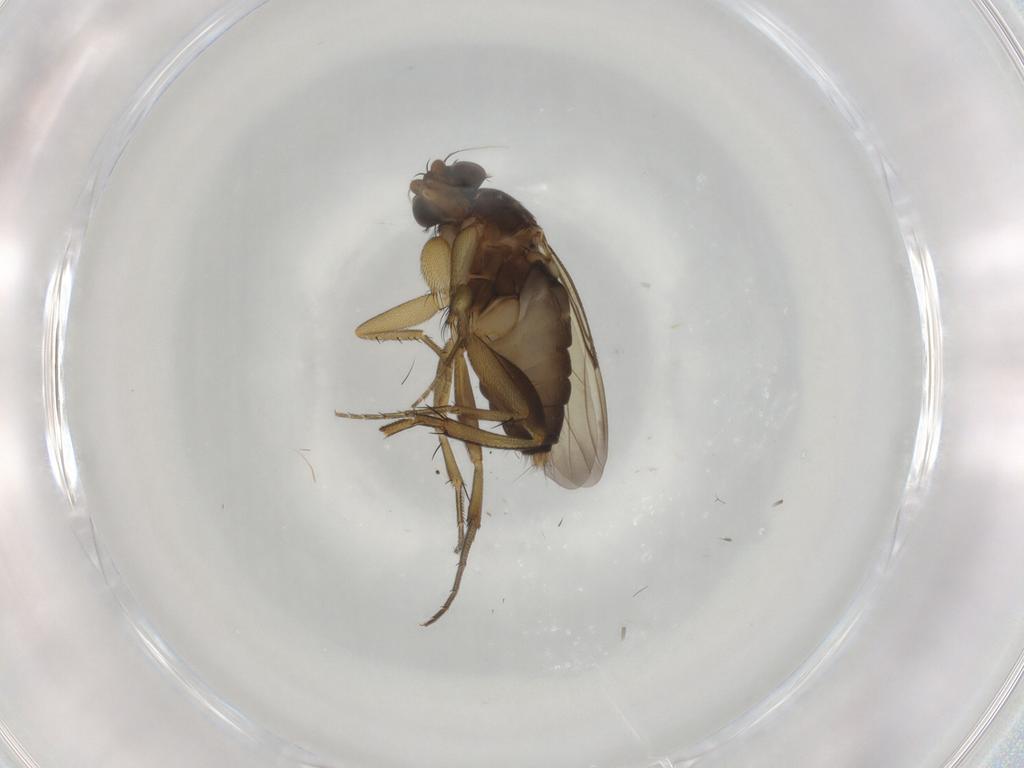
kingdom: Animalia
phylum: Arthropoda
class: Insecta
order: Diptera
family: Phoridae
